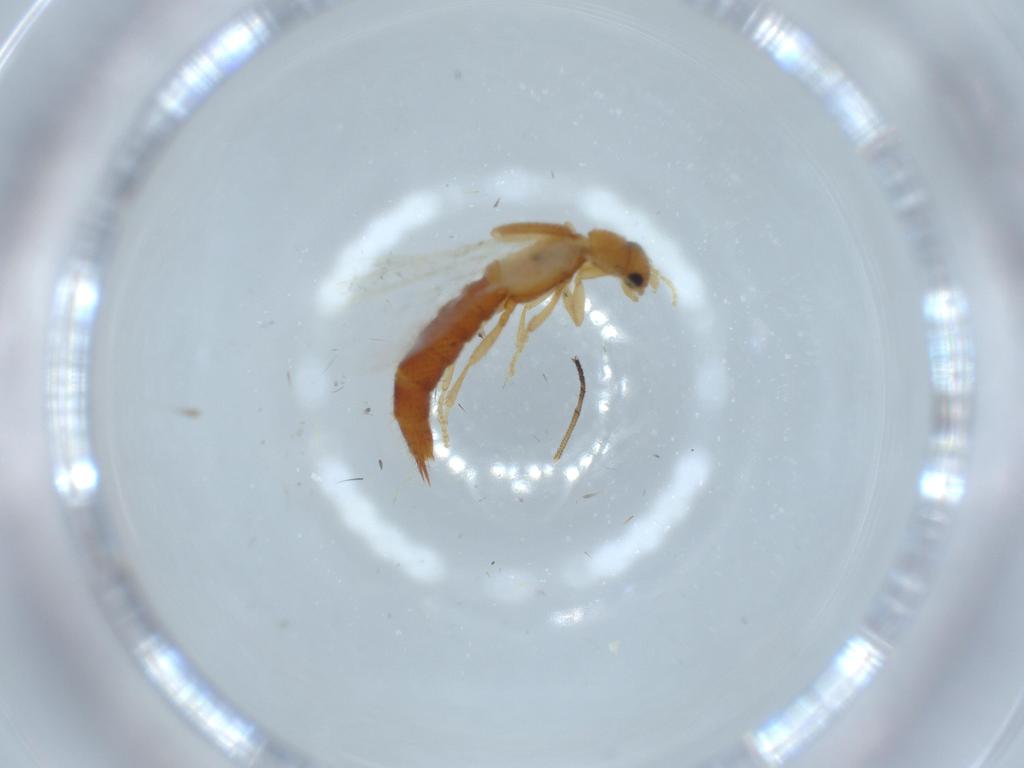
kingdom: Animalia
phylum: Arthropoda
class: Insecta
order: Coleoptera
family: Staphylinidae
